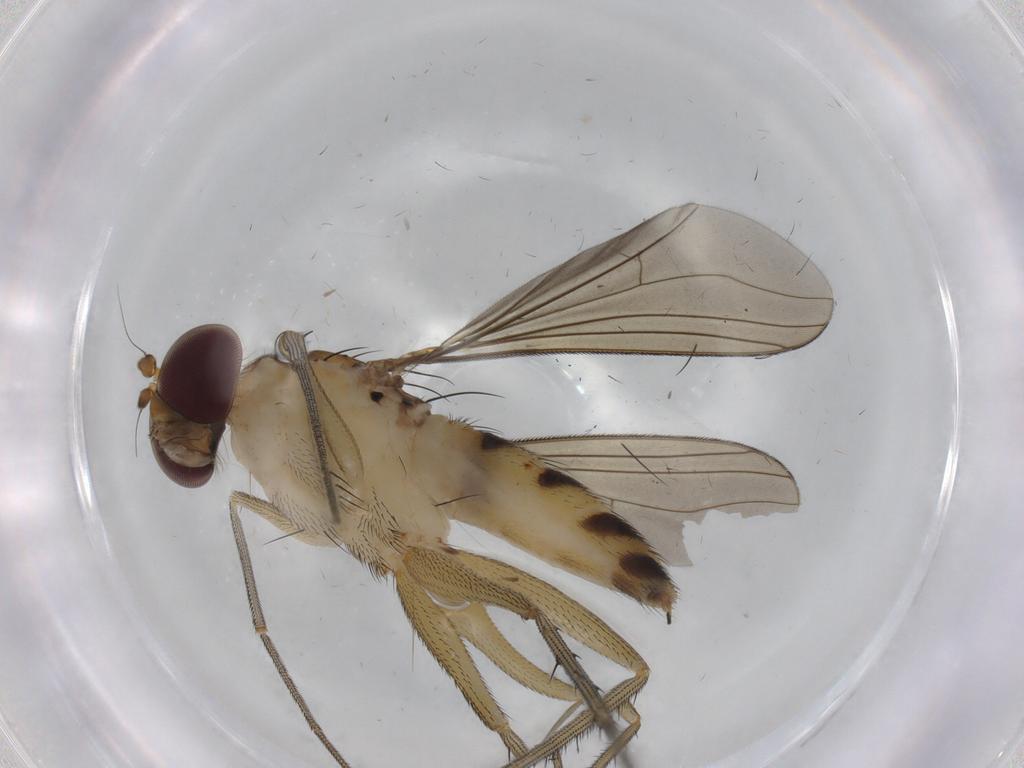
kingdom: Animalia
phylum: Arthropoda
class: Insecta
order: Diptera
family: Dolichopodidae
